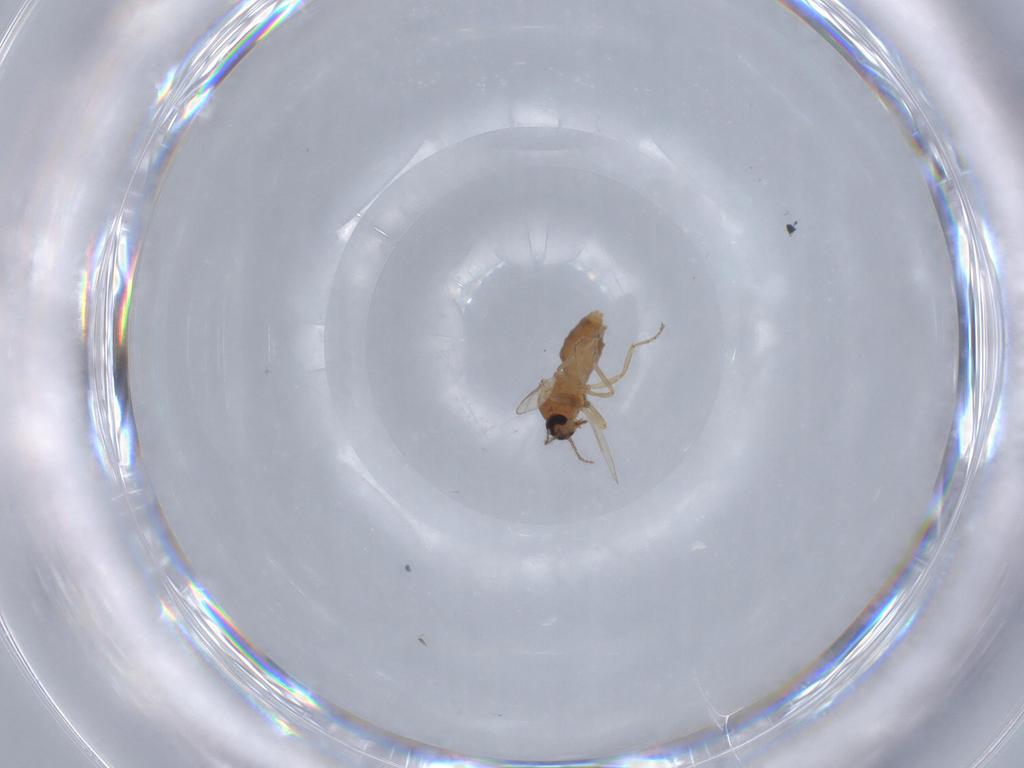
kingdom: Animalia
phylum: Arthropoda
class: Insecta
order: Diptera
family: Ceratopogonidae
